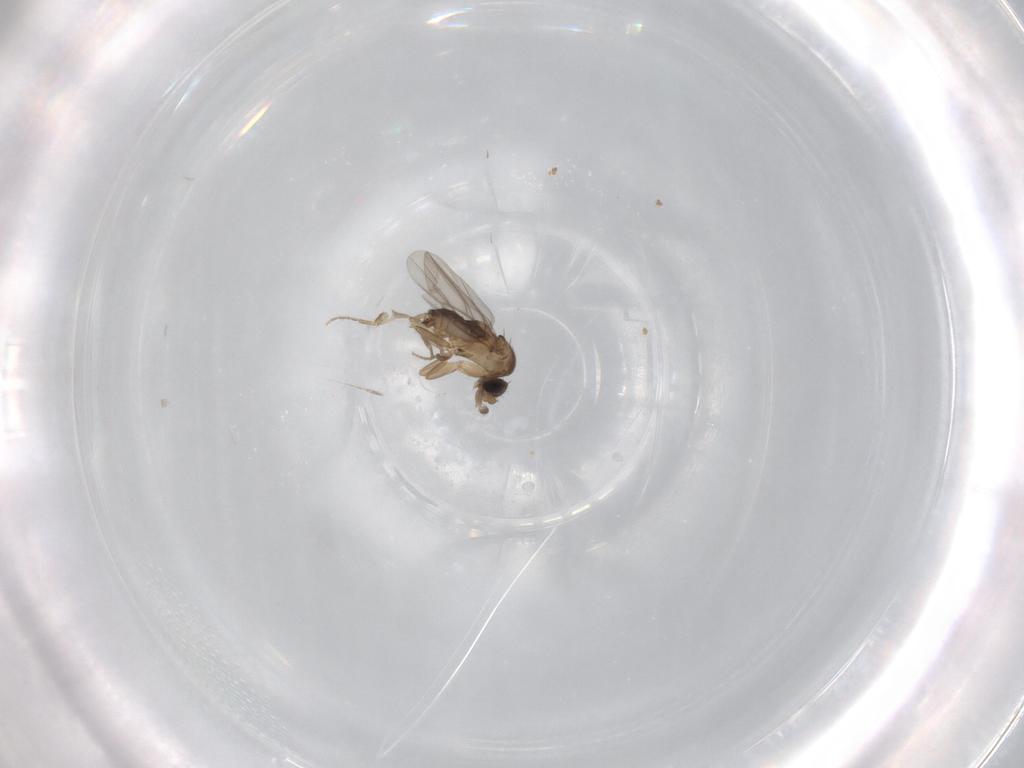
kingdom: Animalia
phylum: Arthropoda
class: Insecta
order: Diptera
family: Phoridae
